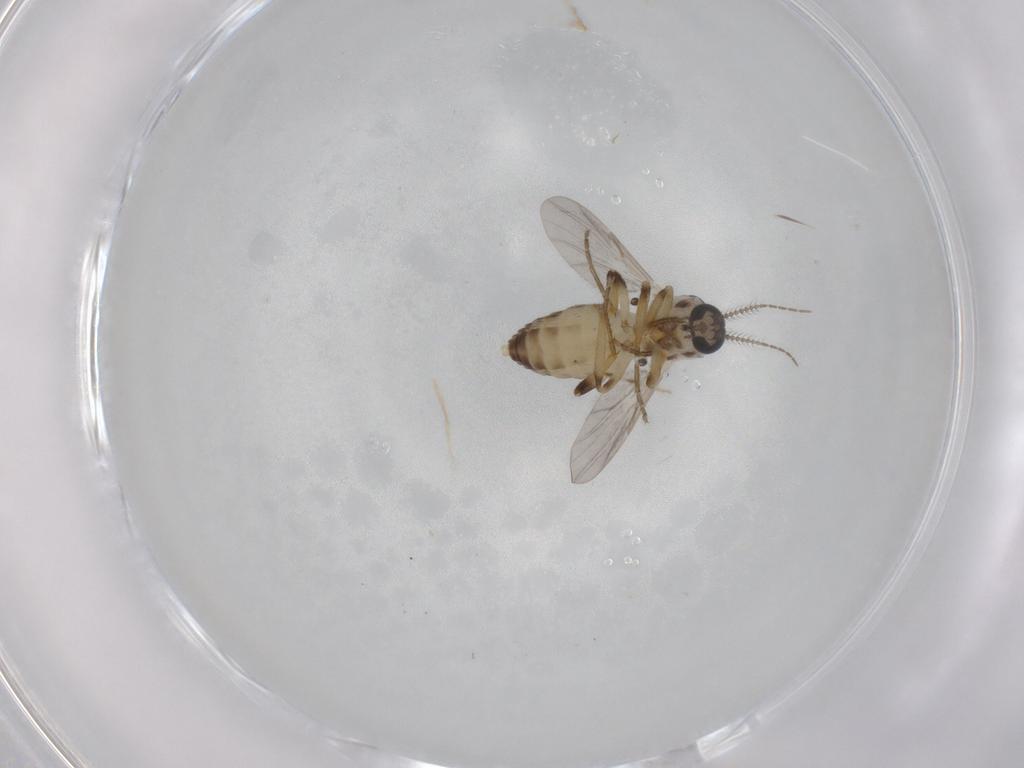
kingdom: Animalia
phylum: Arthropoda
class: Insecta
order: Diptera
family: Ceratopogonidae
